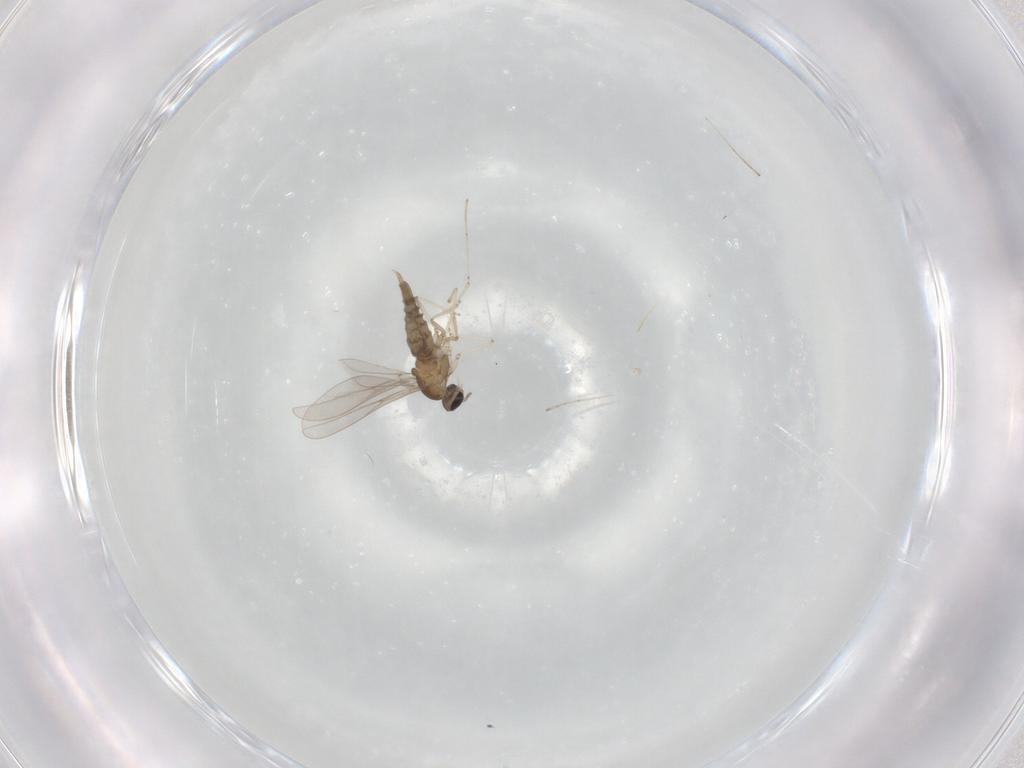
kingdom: Animalia
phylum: Arthropoda
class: Insecta
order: Diptera
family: Cecidomyiidae
